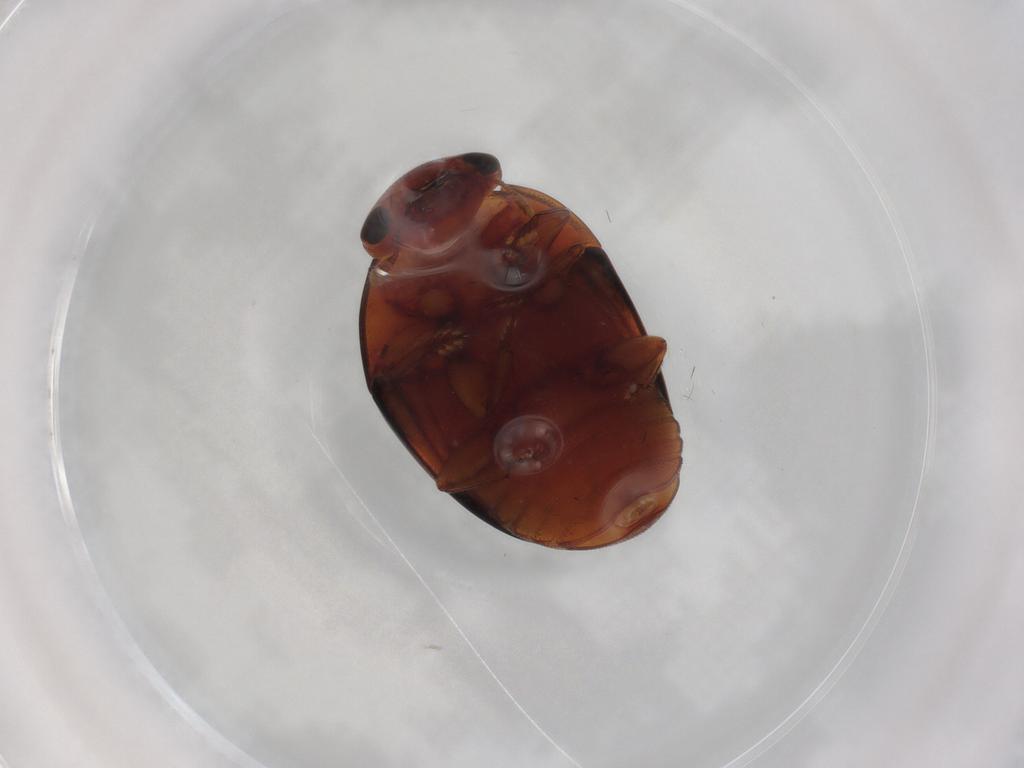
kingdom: Animalia
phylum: Arthropoda
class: Insecta
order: Coleoptera
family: Nitidulidae
